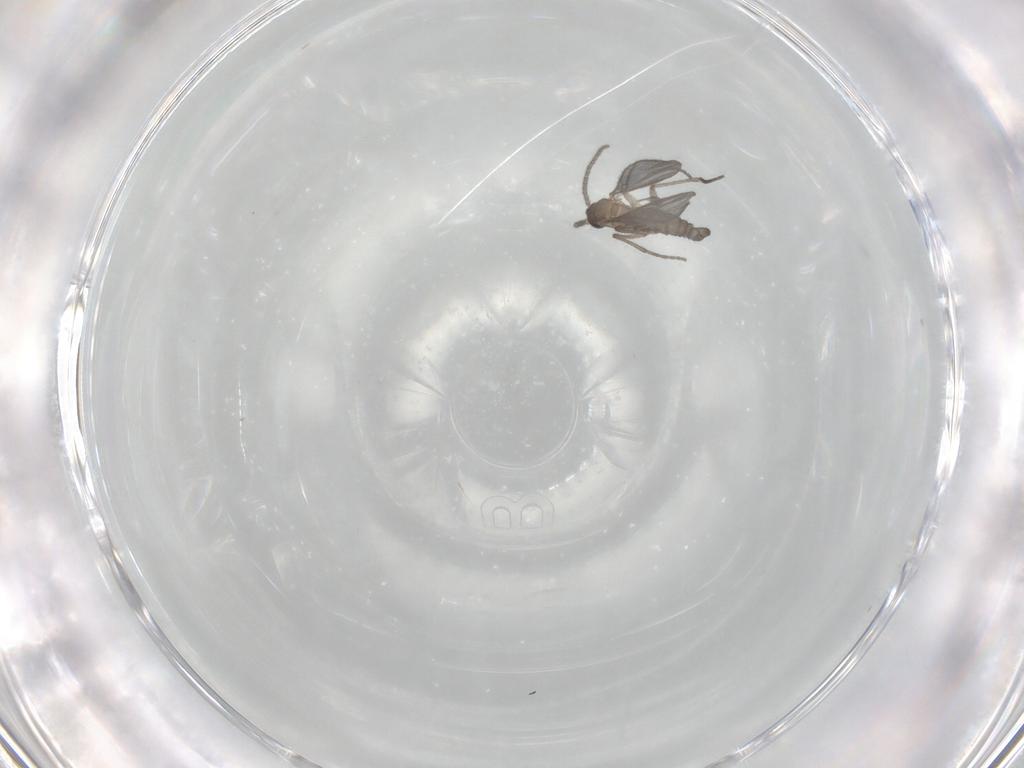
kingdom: Animalia
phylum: Arthropoda
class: Insecta
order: Diptera
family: Sciaridae
